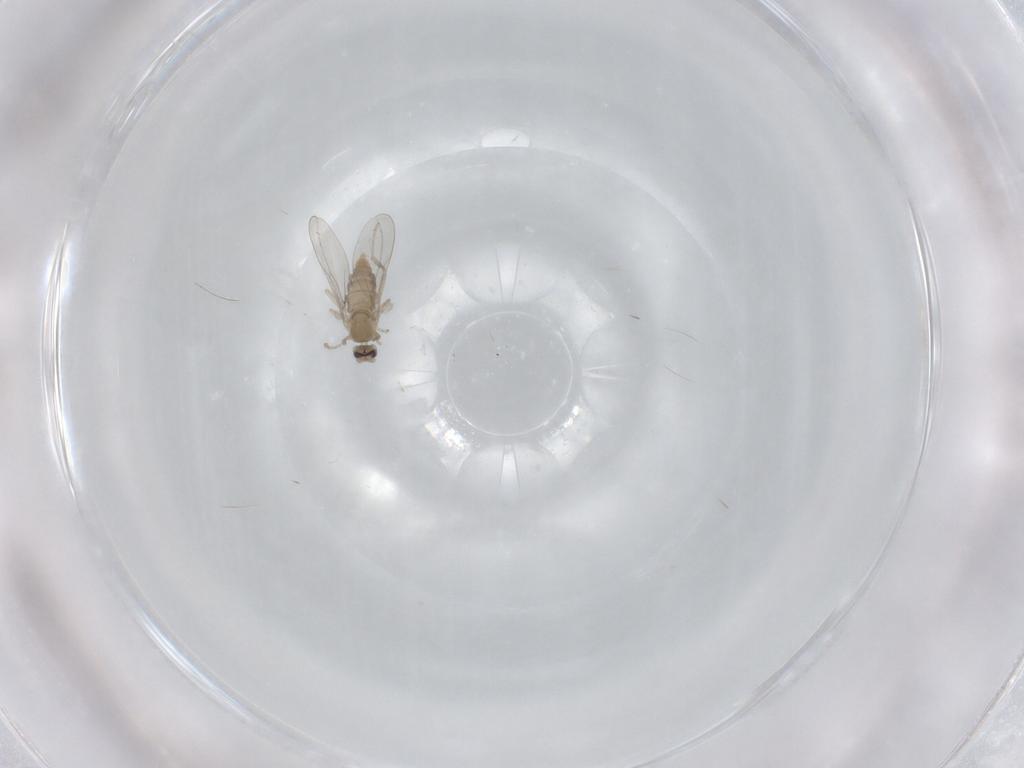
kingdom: Animalia
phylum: Arthropoda
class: Insecta
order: Diptera
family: Cecidomyiidae
